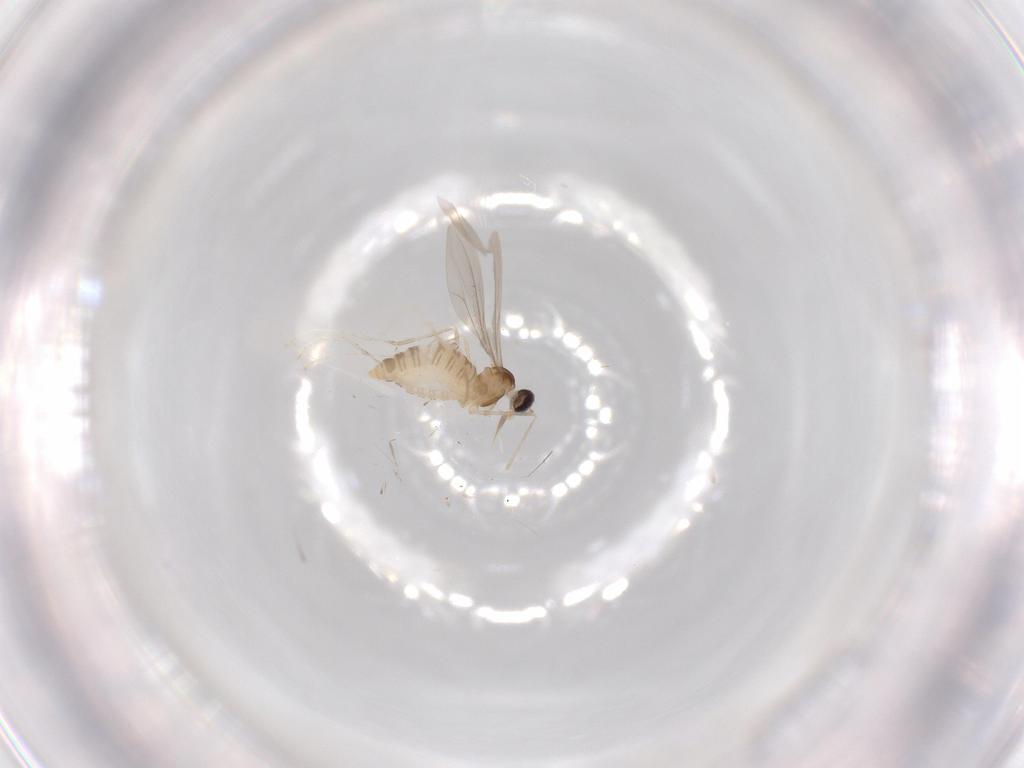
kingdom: Animalia
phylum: Arthropoda
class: Insecta
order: Diptera
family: Cecidomyiidae
